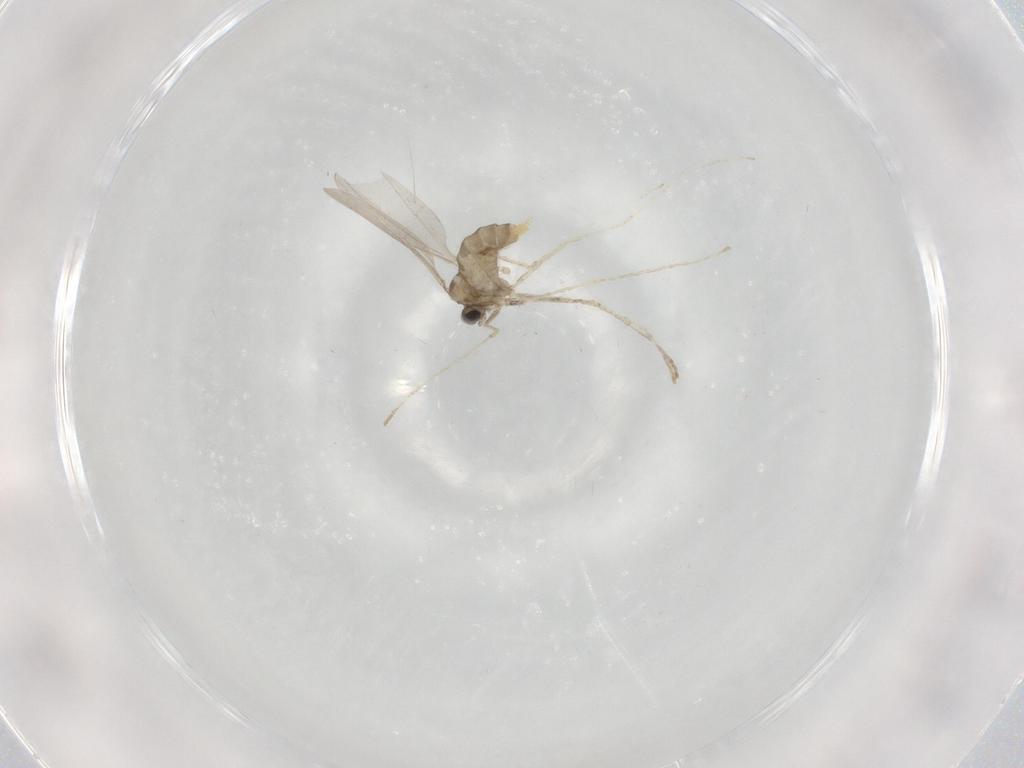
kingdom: Animalia
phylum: Arthropoda
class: Insecta
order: Diptera
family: Cecidomyiidae
